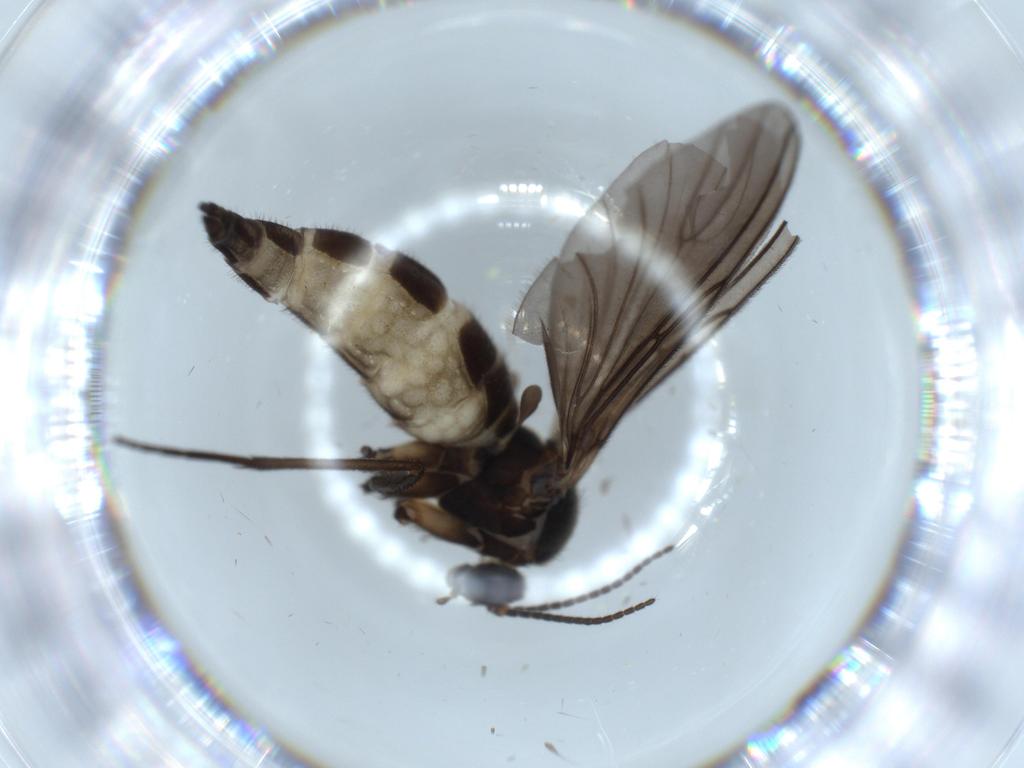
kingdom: Animalia
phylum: Arthropoda
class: Insecta
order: Diptera
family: Sciaridae
